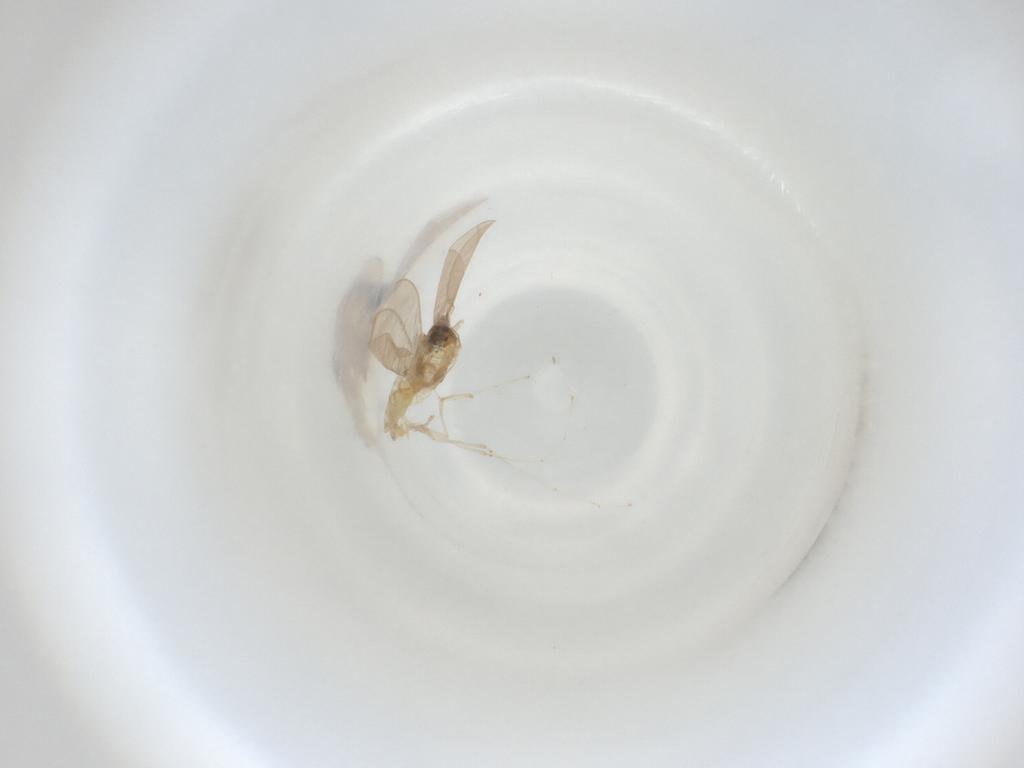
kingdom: Animalia
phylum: Arthropoda
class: Insecta
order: Diptera
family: Cecidomyiidae
